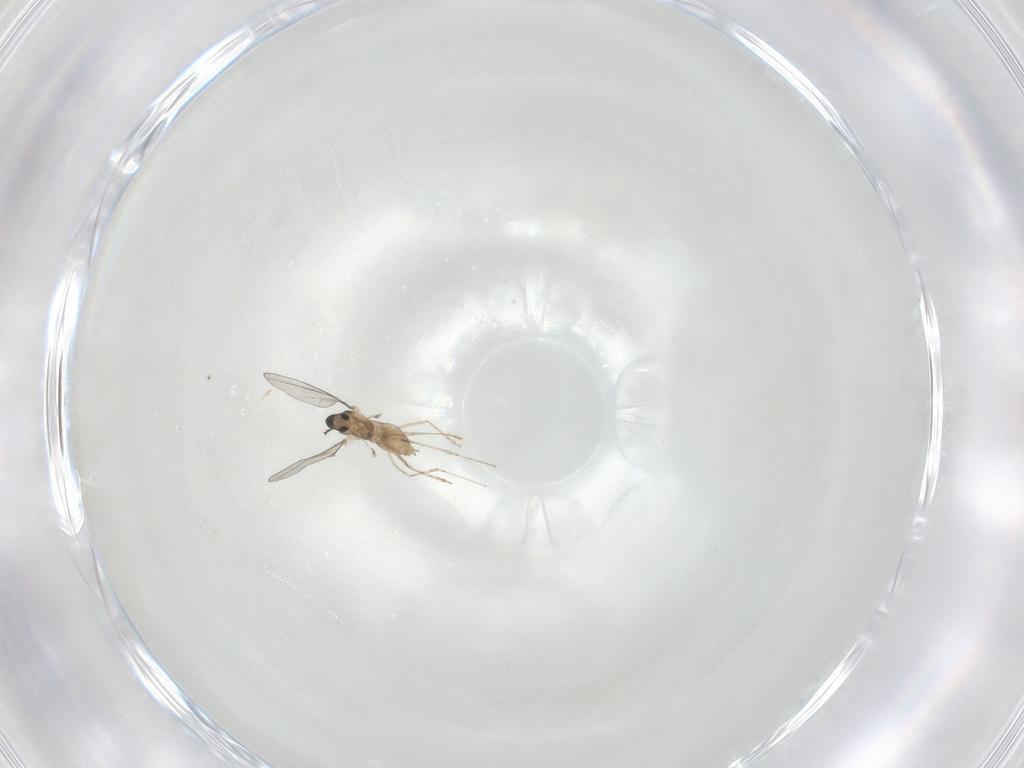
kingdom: Animalia
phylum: Arthropoda
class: Insecta
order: Diptera
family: Cecidomyiidae
